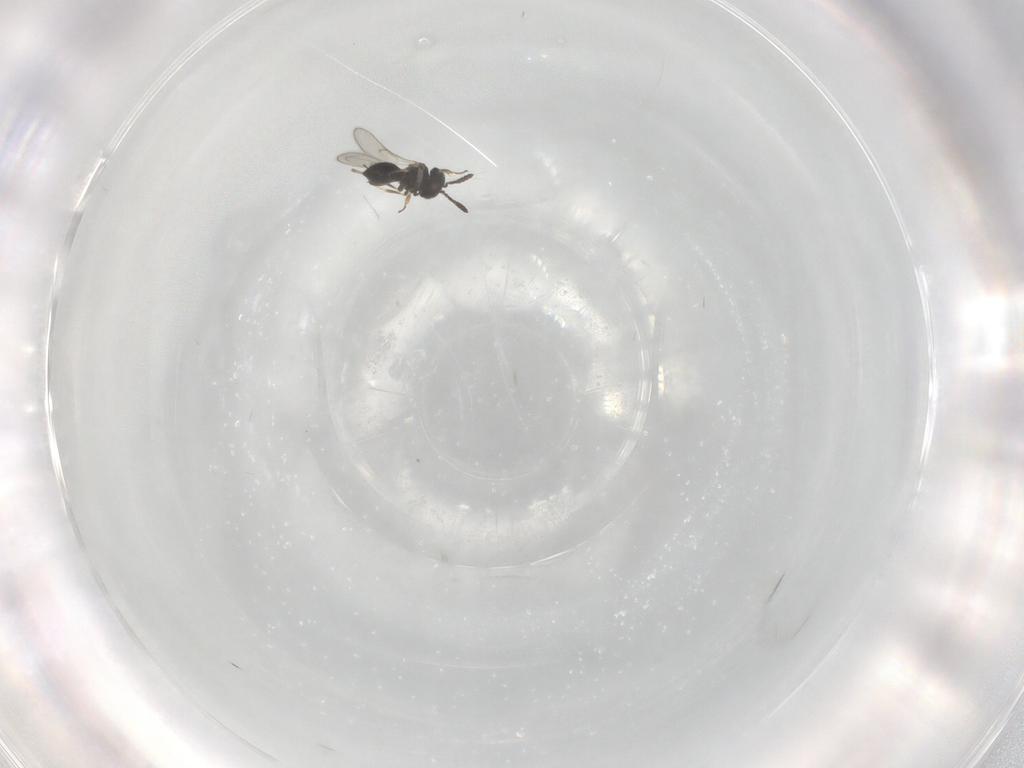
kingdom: Animalia
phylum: Arthropoda
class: Insecta
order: Hymenoptera
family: Scelionidae
